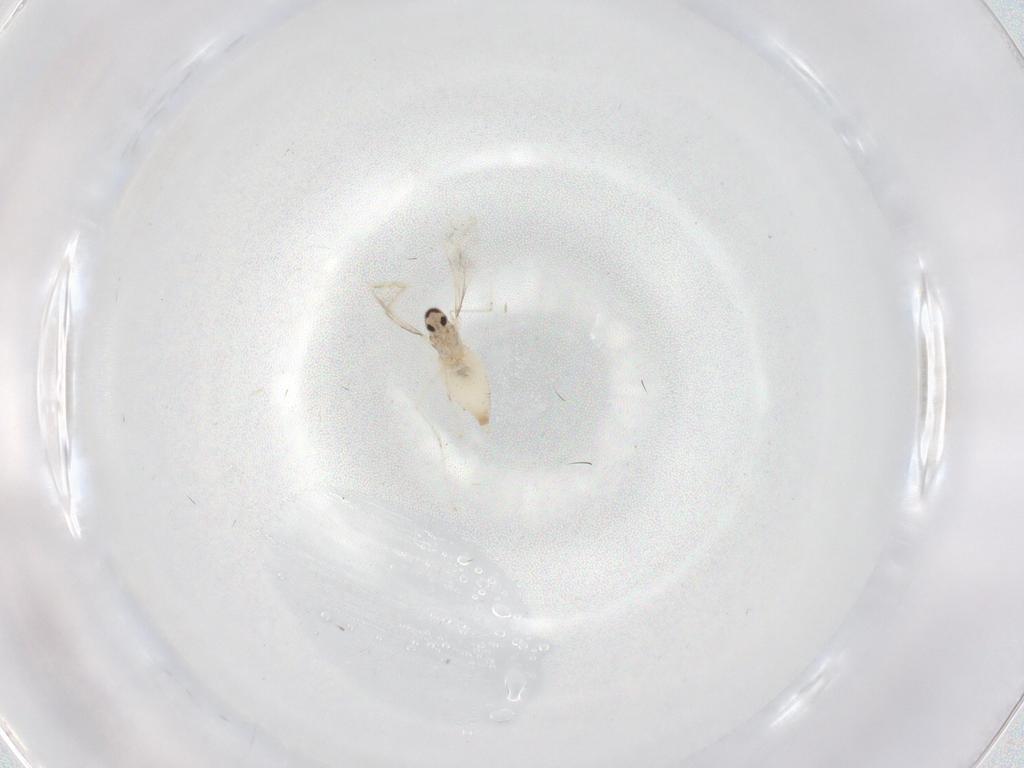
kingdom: Animalia
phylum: Arthropoda
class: Insecta
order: Diptera
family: Cecidomyiidae
